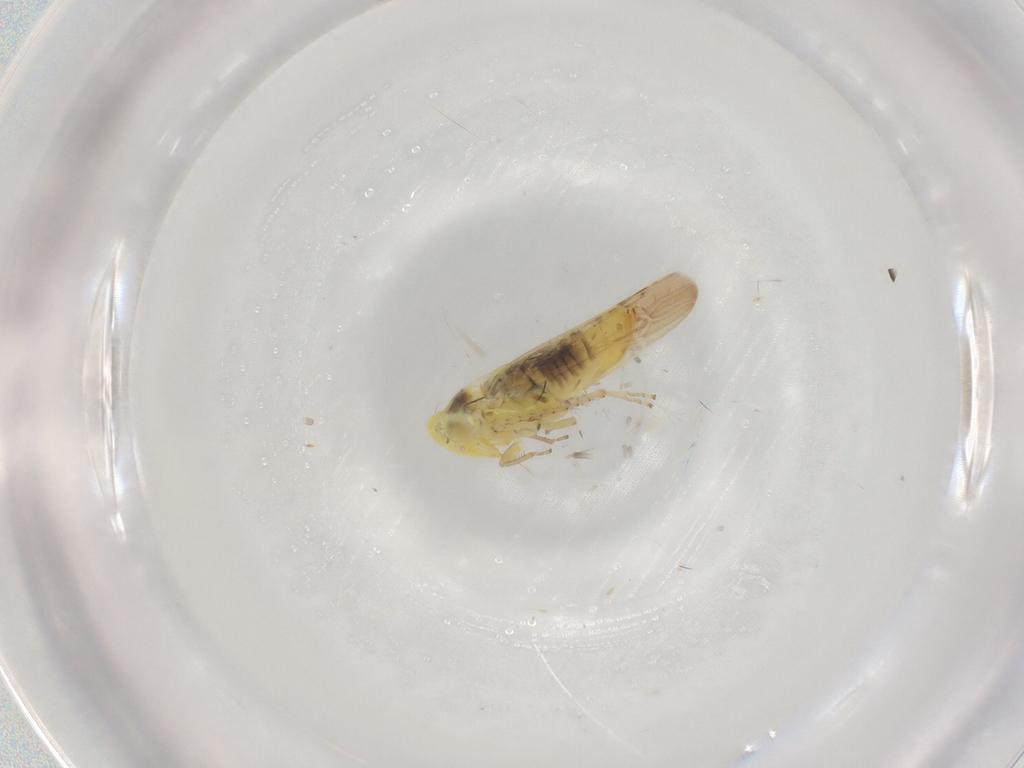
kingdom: Animalia
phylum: Arthropoda
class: Insecta
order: Hemiptera
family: Cicadellidae
